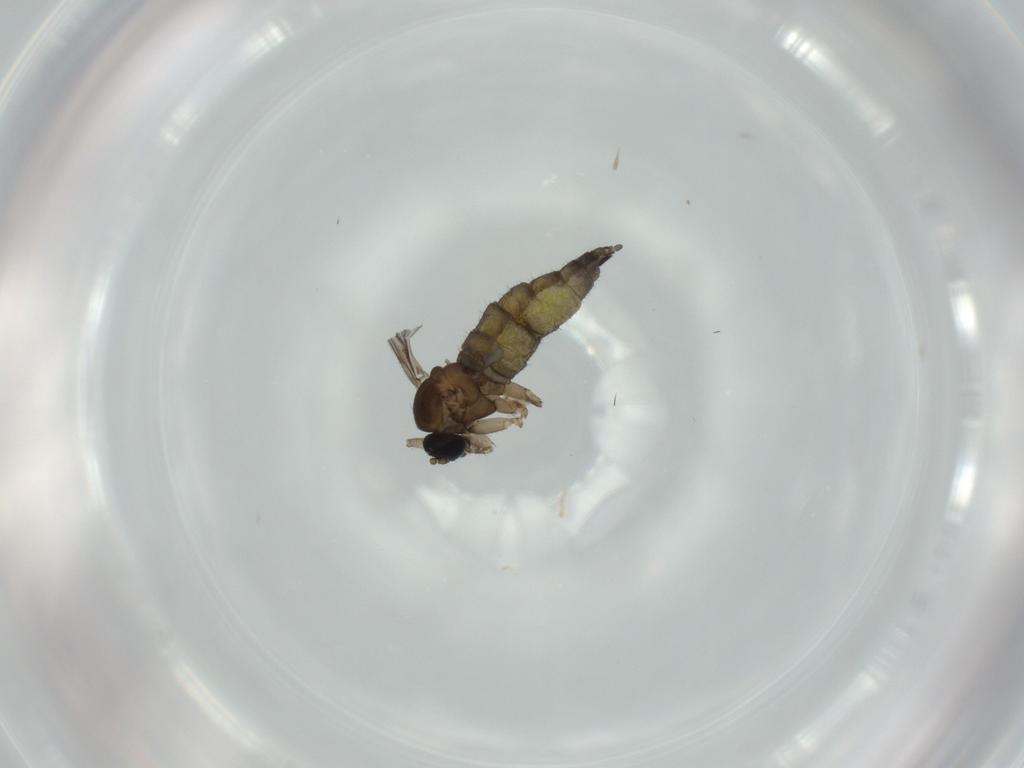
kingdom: Animalia
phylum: Arthropoda
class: Insecta
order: Diptera
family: Sciaridae
